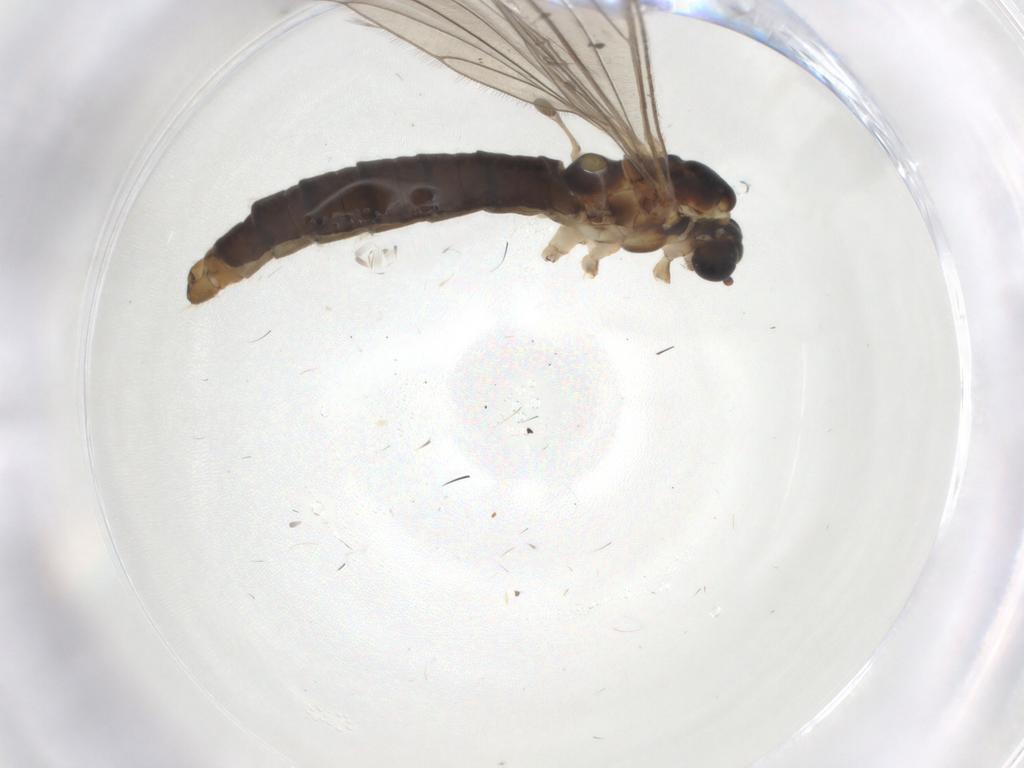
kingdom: Animalia
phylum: Arthropoda
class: Insecta
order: Diptera
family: Limoniidae
